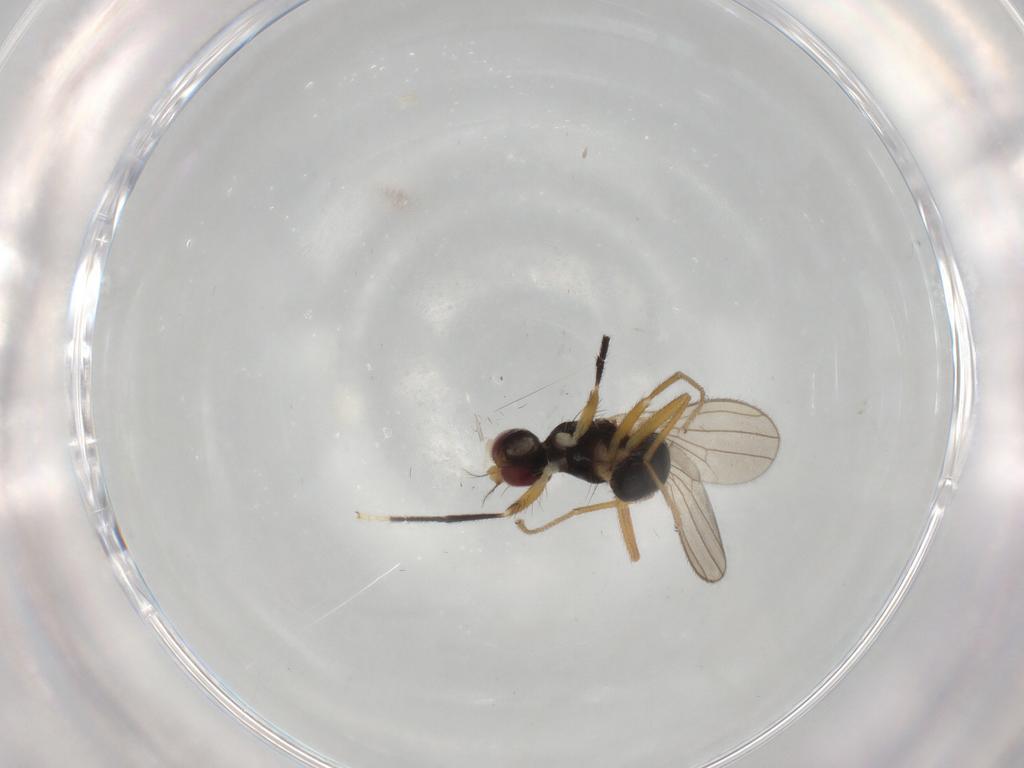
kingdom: Animalia
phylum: Arthropoda
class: Insecta
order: Diptera
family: Anthomyzidae
